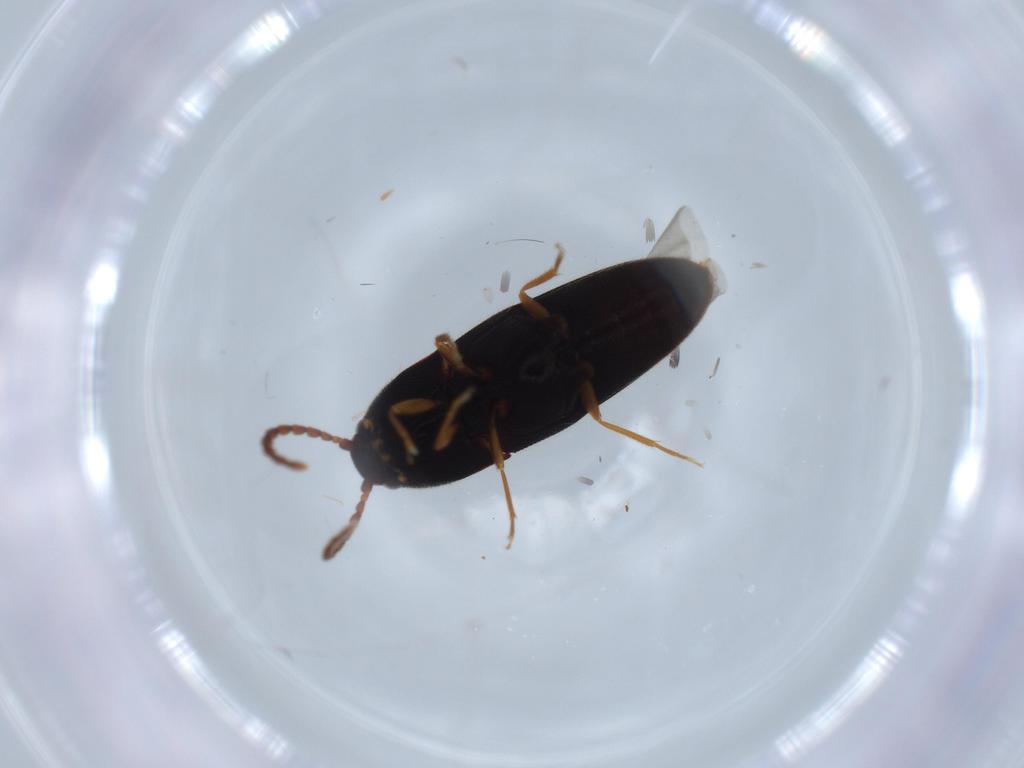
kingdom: Animalia
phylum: Arthropoda
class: Insecta
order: Coleoptera
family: Elateridae
